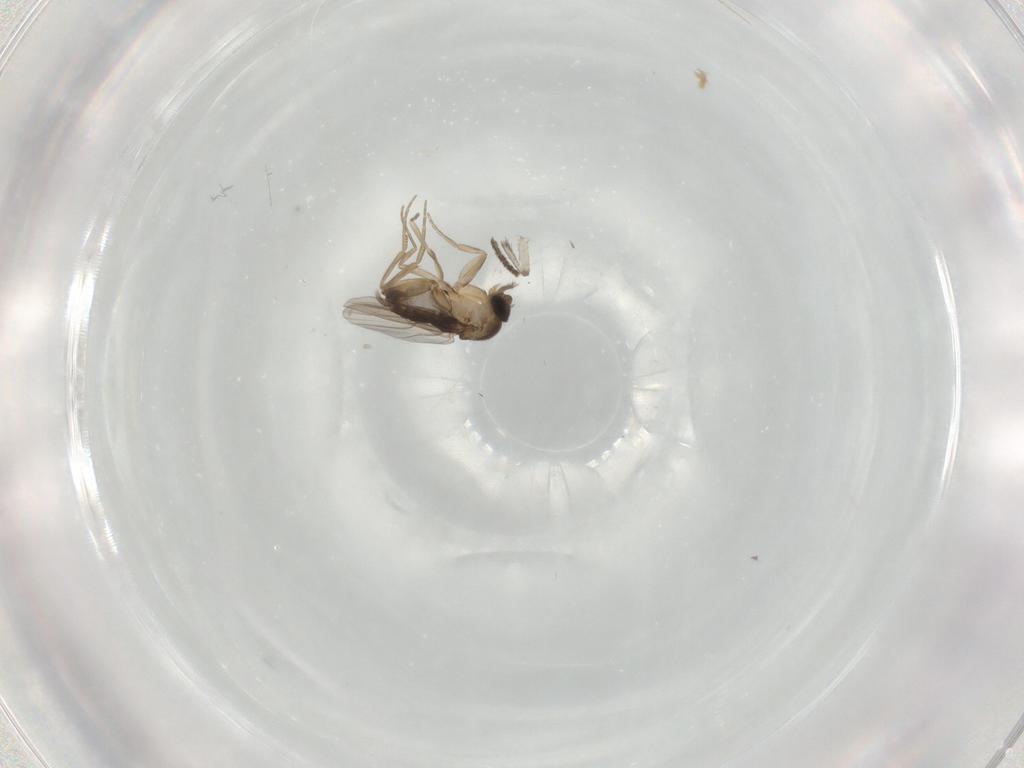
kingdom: Animalia
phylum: Arthropoda
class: Insecta
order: Diptera
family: Phoridae
